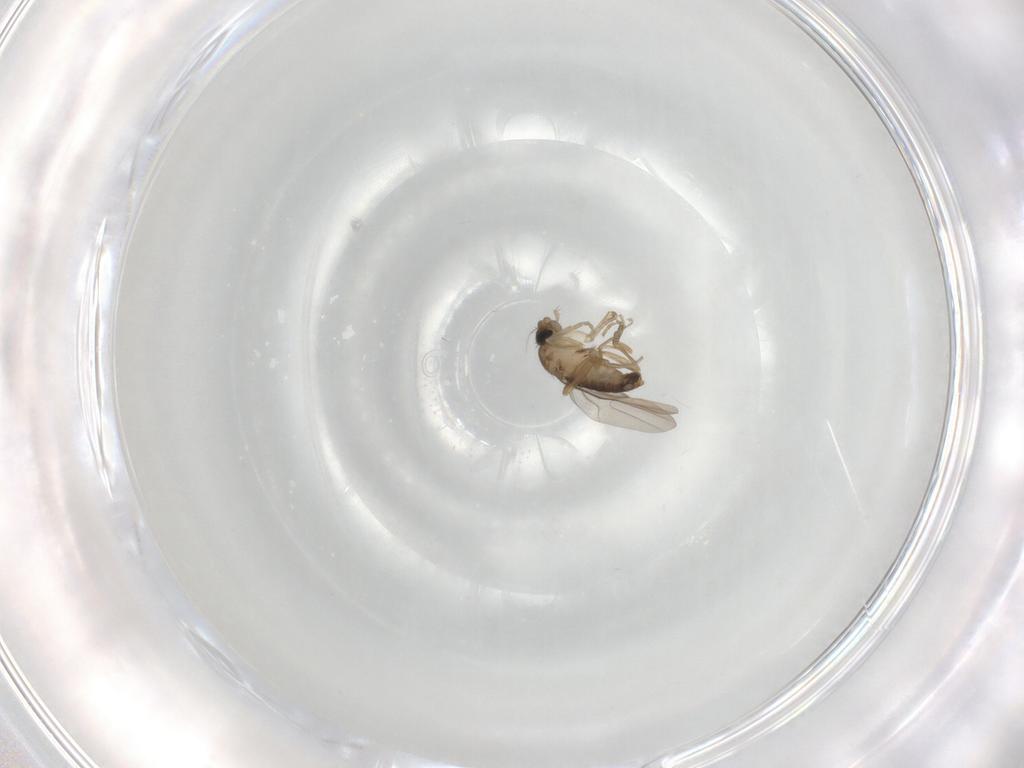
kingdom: Animalia
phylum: Arthropoda
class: Insecta
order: Diptera
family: Phoridae
